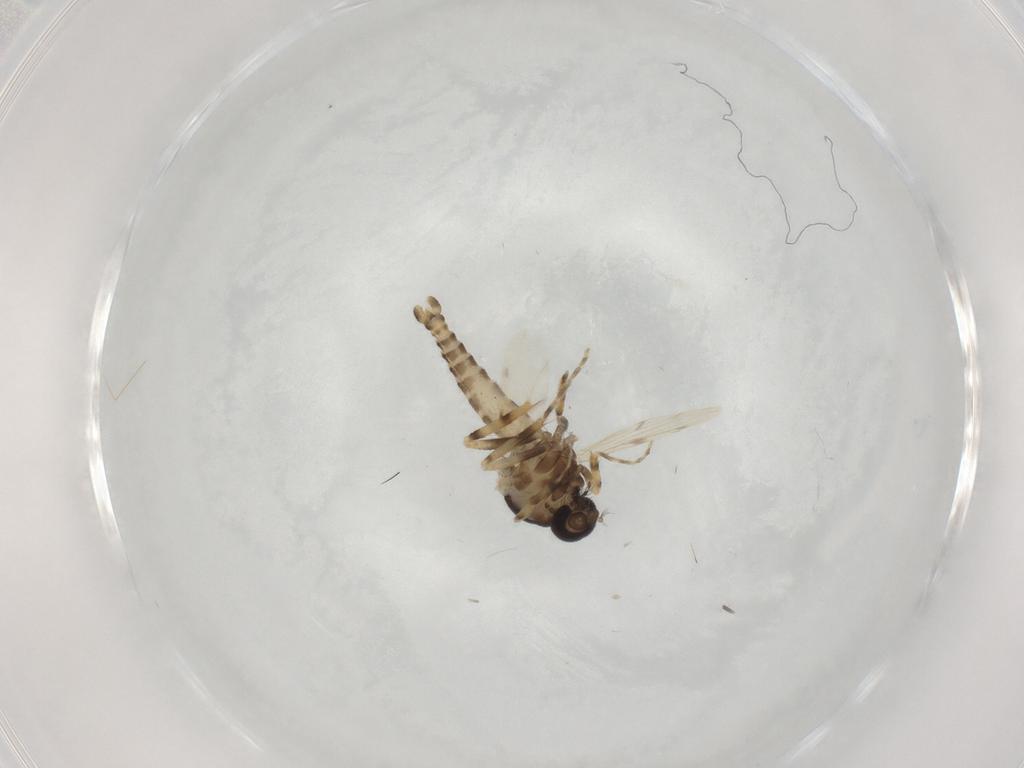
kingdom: Animalia
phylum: Arthropoda
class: Insecta
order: Diptera
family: Ceratopogonidae
